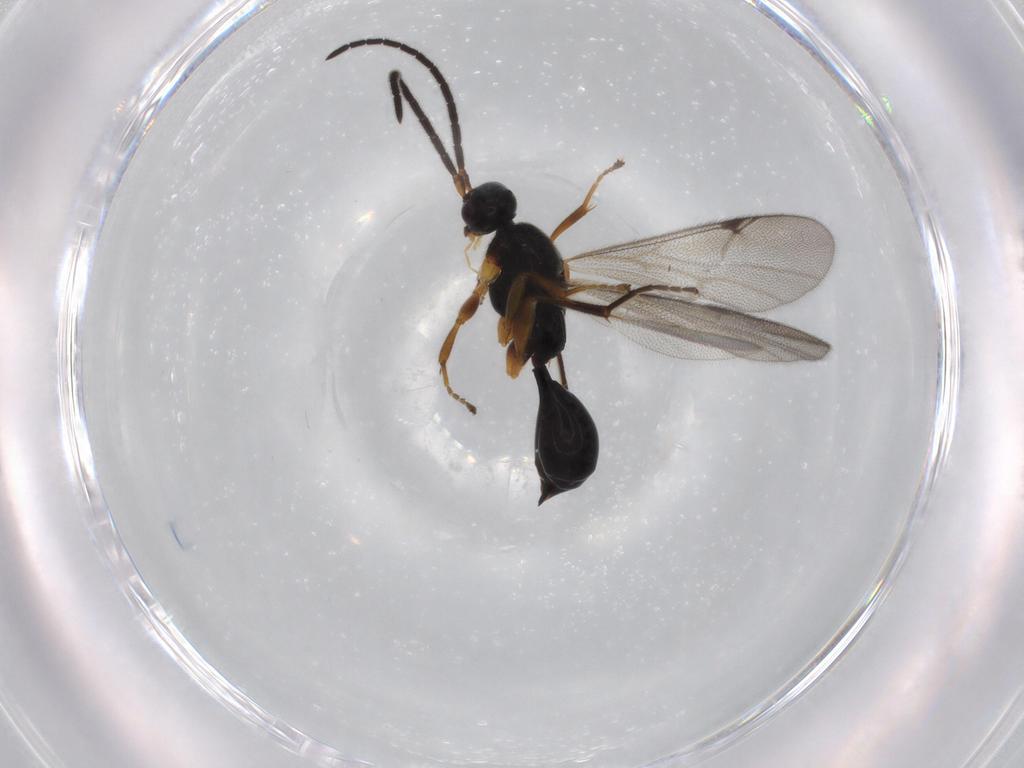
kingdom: Animalia
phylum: Arthropoda
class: Insecta
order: Hymenoptera
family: Proctotrupidae
